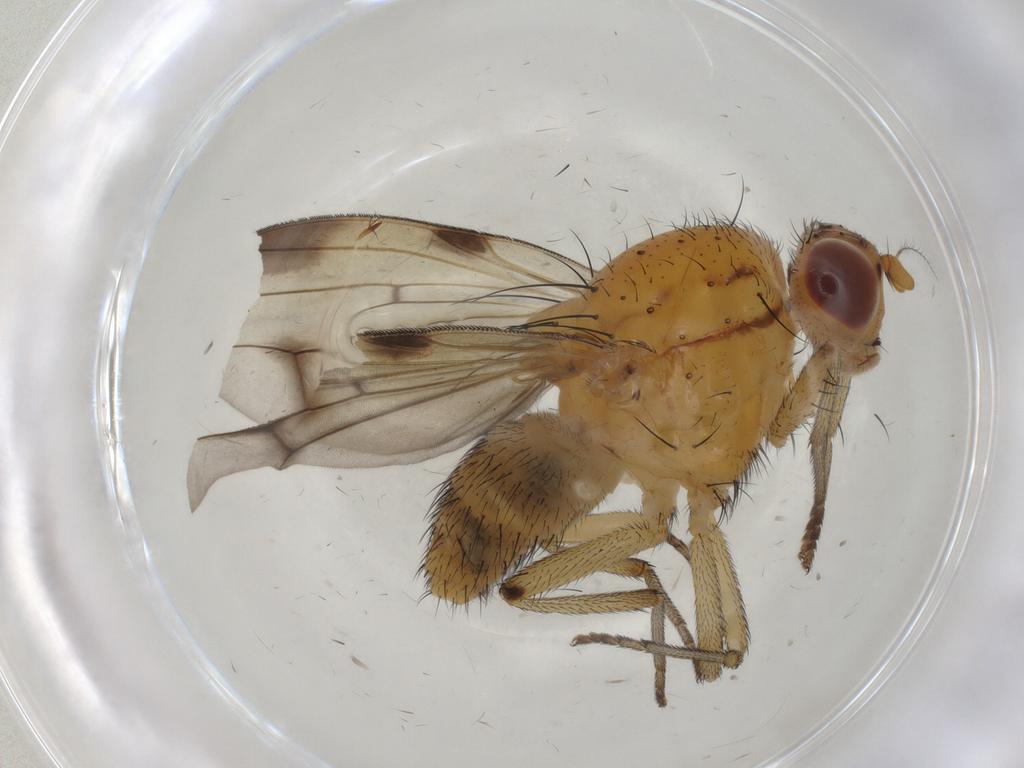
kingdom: Animalia
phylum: Arthropoda
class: Insecta
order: Diptera
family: Lauxaniidae
